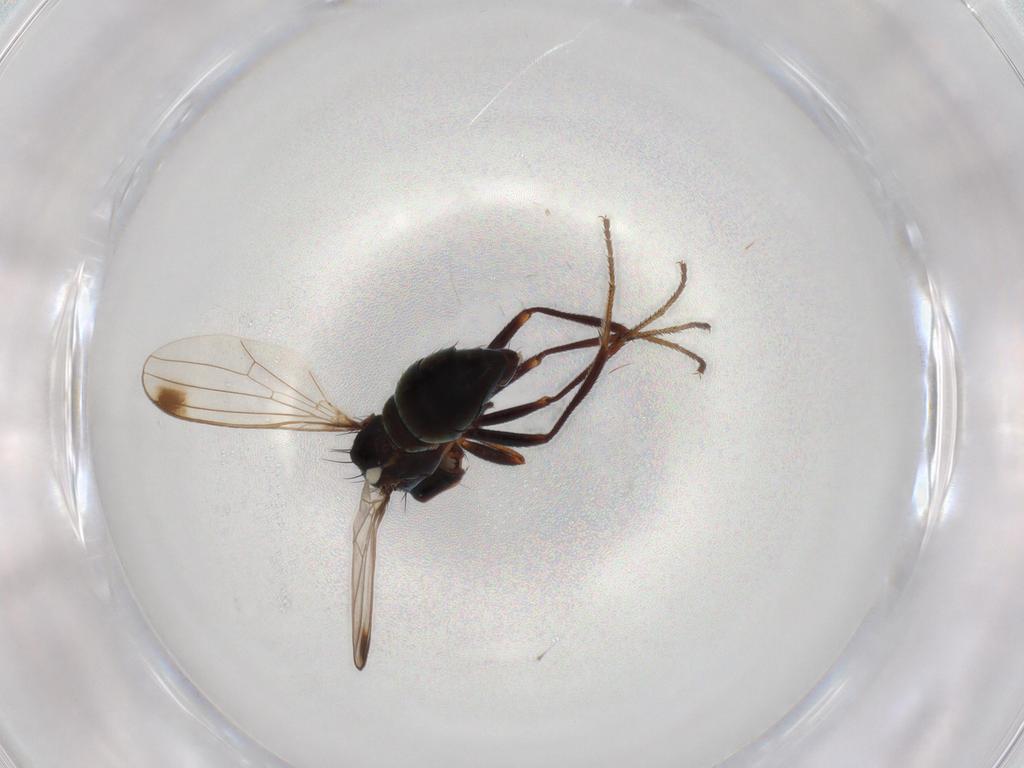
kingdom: Animalia
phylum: Arthropoda
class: Insecta
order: Diptera
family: Sepsidae
